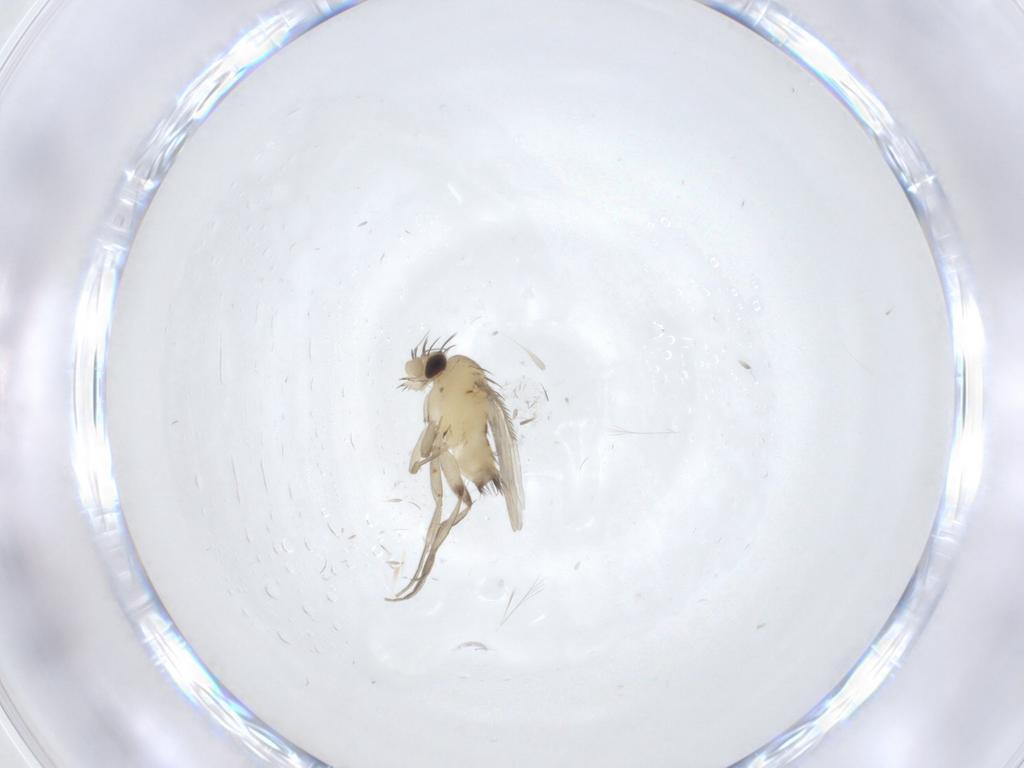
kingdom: Animalia
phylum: Arthropoda
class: Insecta
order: Diptera
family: Phoridae
